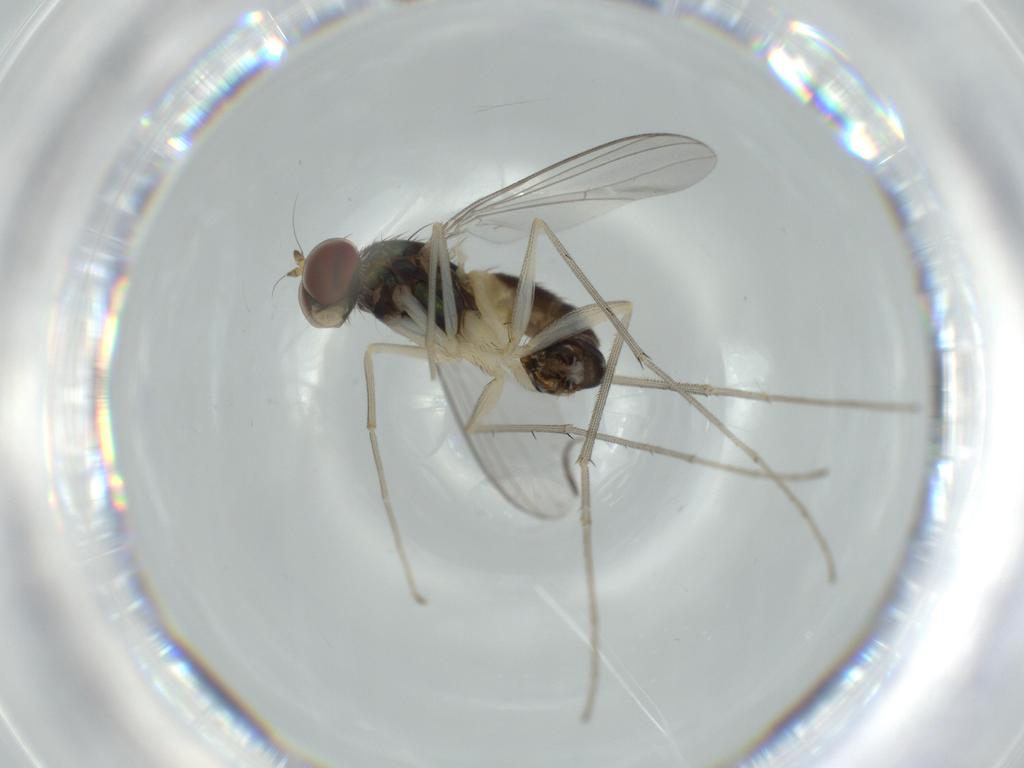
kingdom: Animalia
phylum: Arthropoda
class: Insecta
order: Diptera
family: Dolichopodidae
